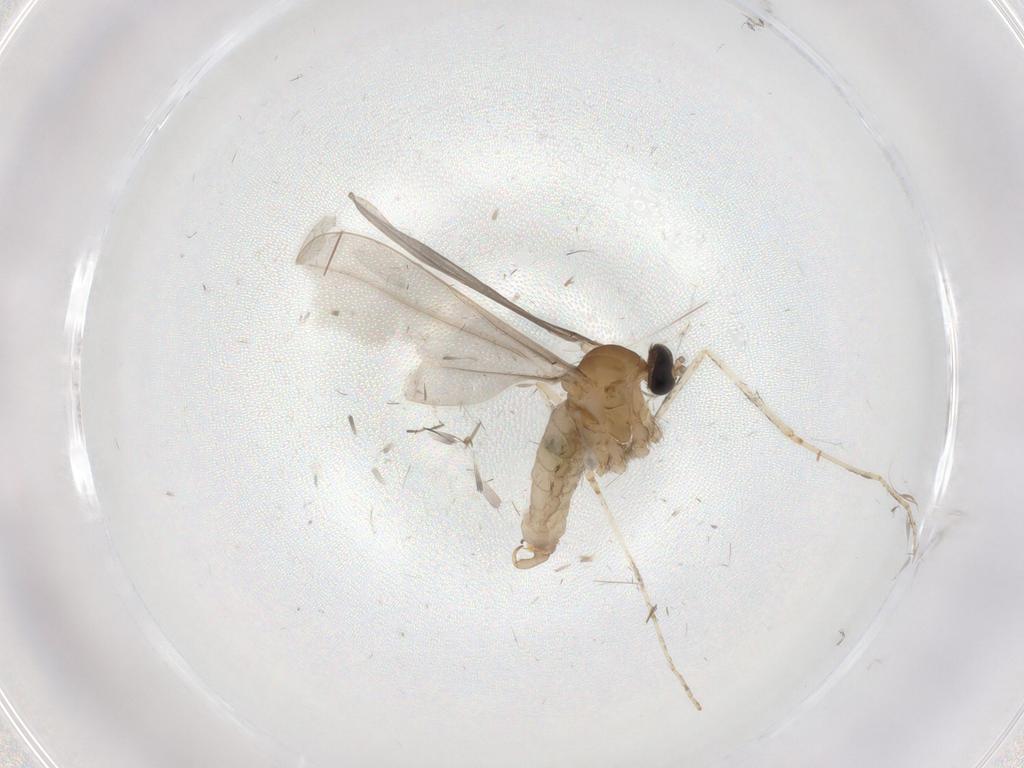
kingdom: Animalia
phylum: Arthropoda
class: Insecta
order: Diptera
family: Cecidomyiidae
